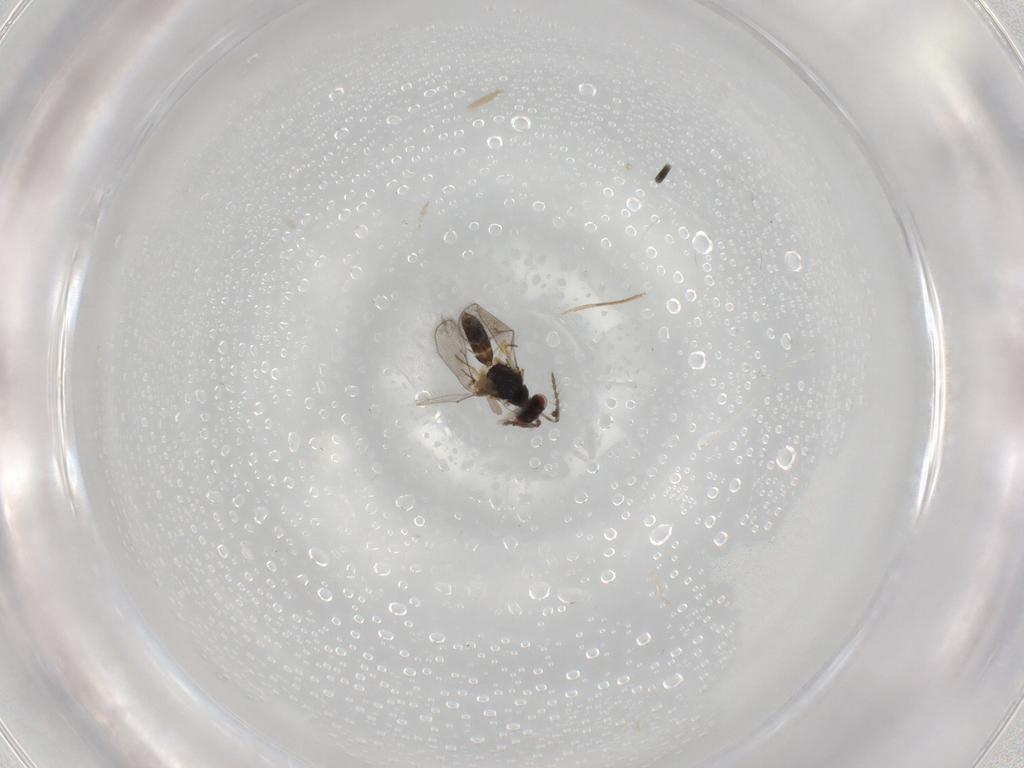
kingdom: Animalia
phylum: Arthropoda
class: Insecta
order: Hymenoptera
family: Eulophidae
